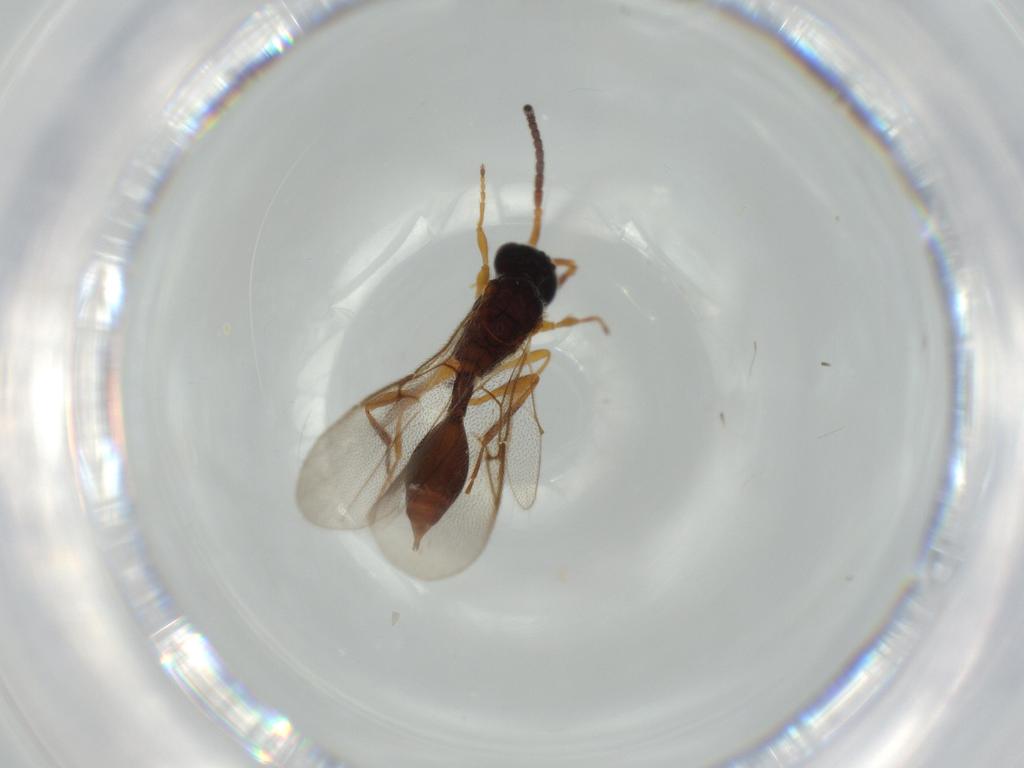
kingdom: Animalia
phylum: Arthropoda
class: Insecta
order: Hymenoptera
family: Ichneumonidae
